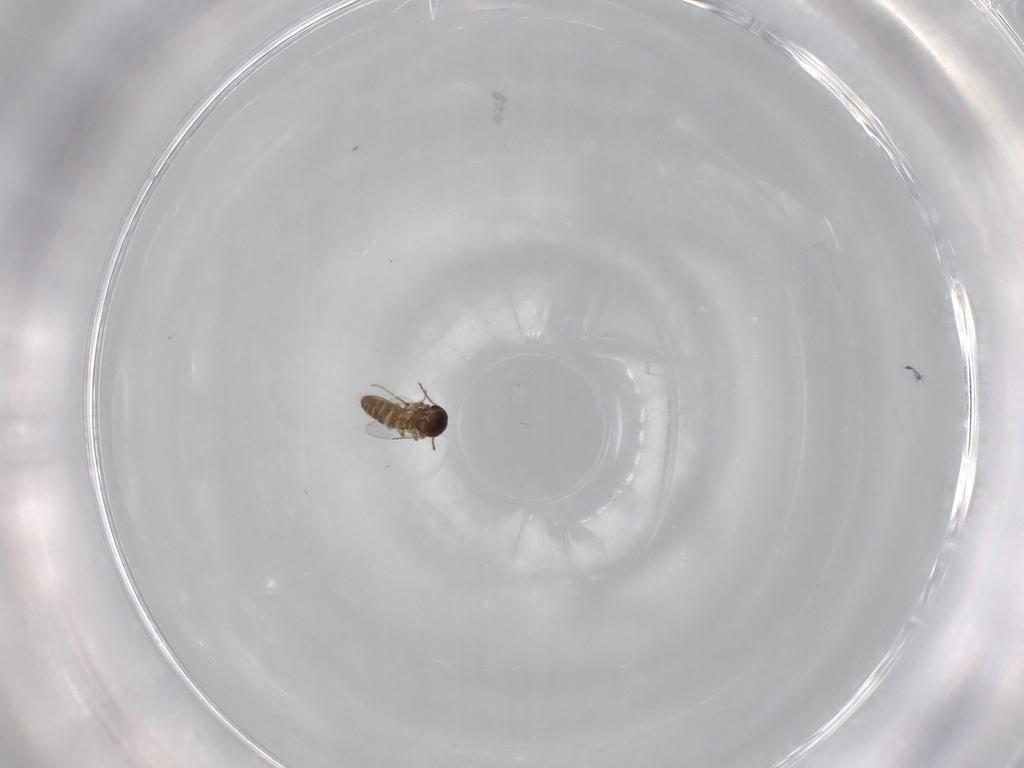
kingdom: Animalia
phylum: Arthropoda
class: Insecta
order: Diptera
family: Ceratopogonidae
